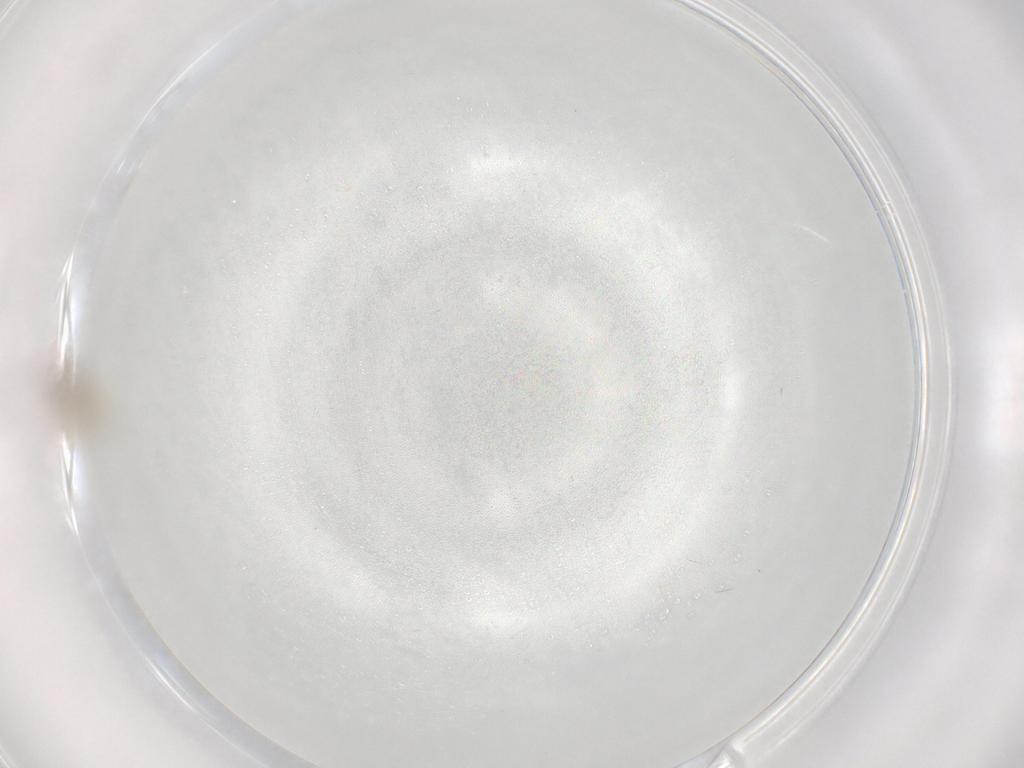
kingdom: Animalia
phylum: Arthropoda
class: Insecta
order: Diptera
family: Cecidomyiidae
